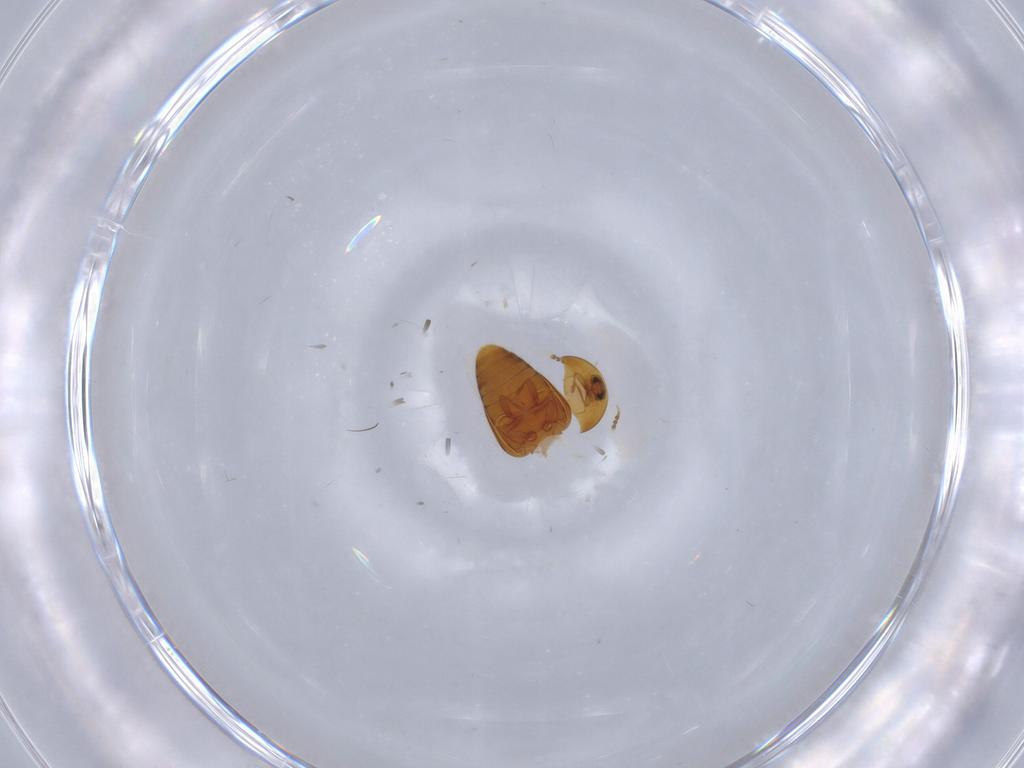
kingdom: Animalia
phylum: Arthropoda
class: Insecta
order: Coleoptera
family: Corylophidae
